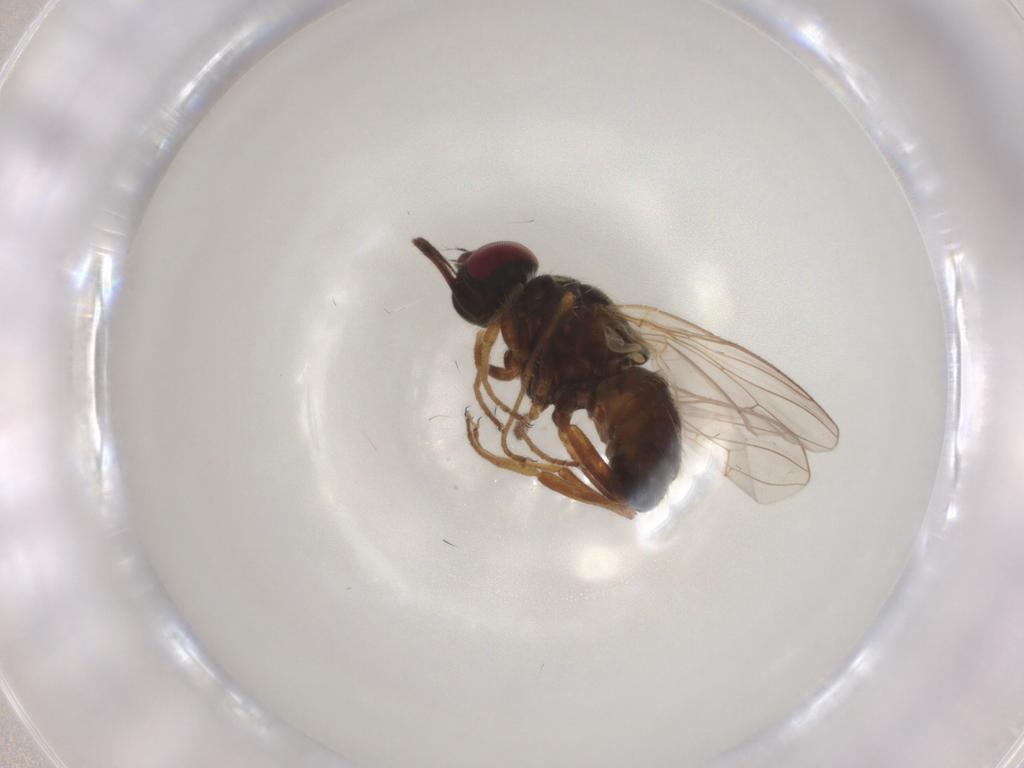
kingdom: Animalia
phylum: Arthropoda
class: Insecta
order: Diptera
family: Muscidae
